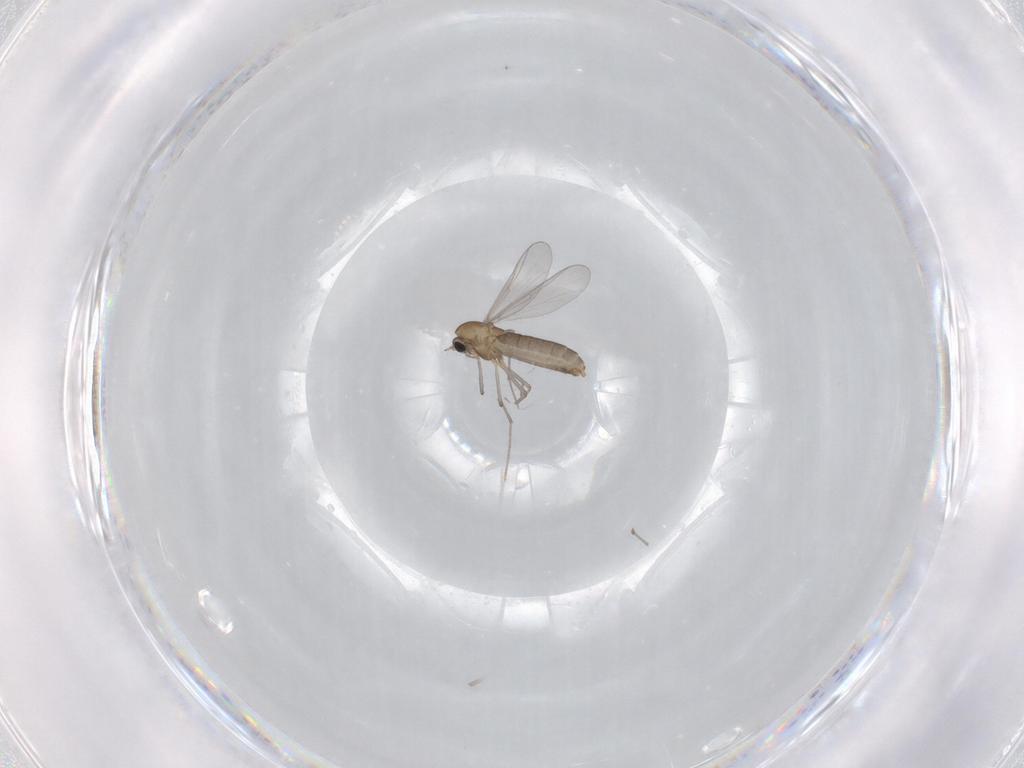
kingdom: Animalia
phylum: Arthropoda
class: Insecta
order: Diptera
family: Chironomidae
